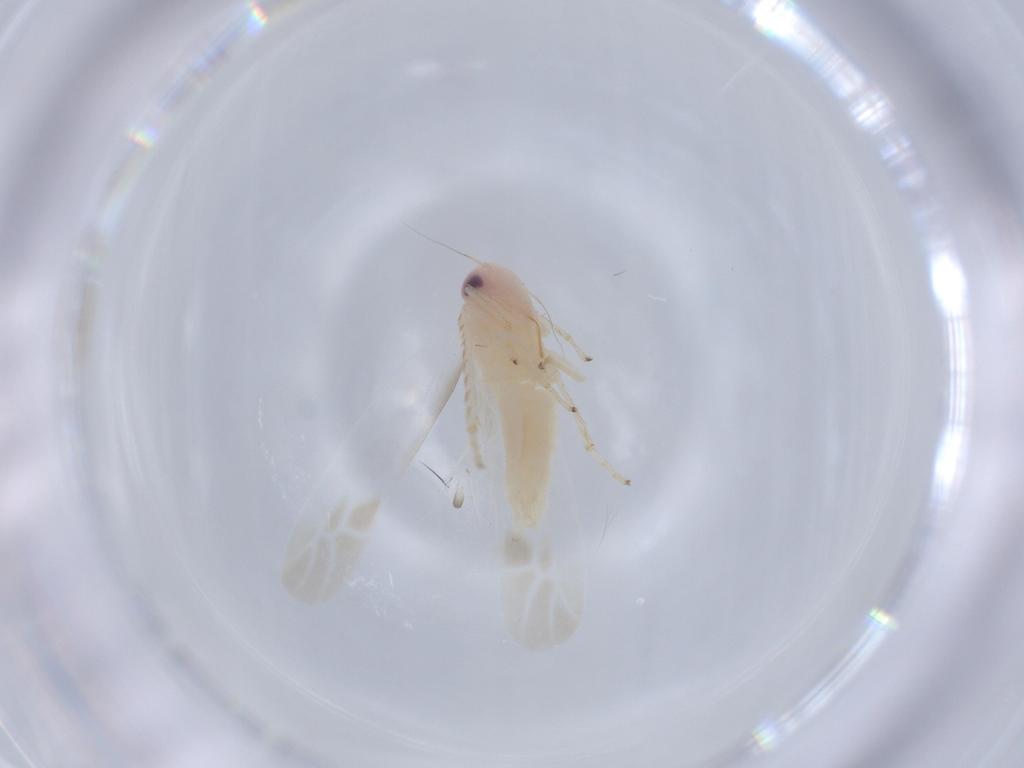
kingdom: Animalia
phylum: Arthropoda
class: Insecta
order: Hemiptera
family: Cicadellidae
